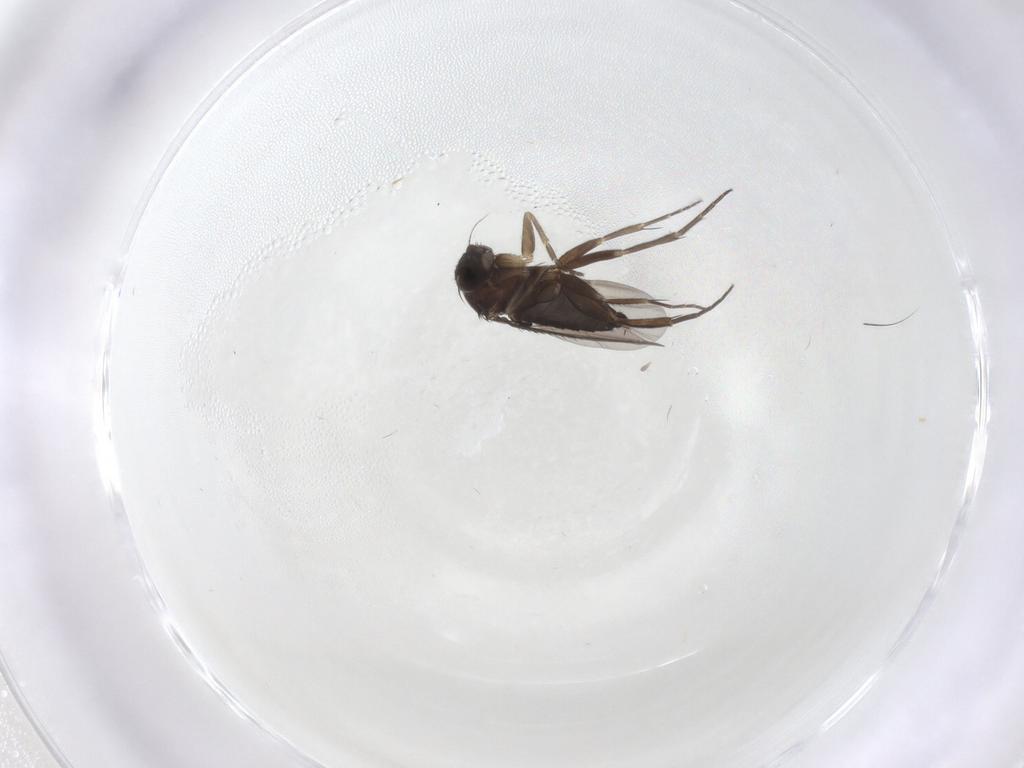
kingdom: Animalia
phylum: Arthropoda
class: Insecta
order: Diptera
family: Phoridae
